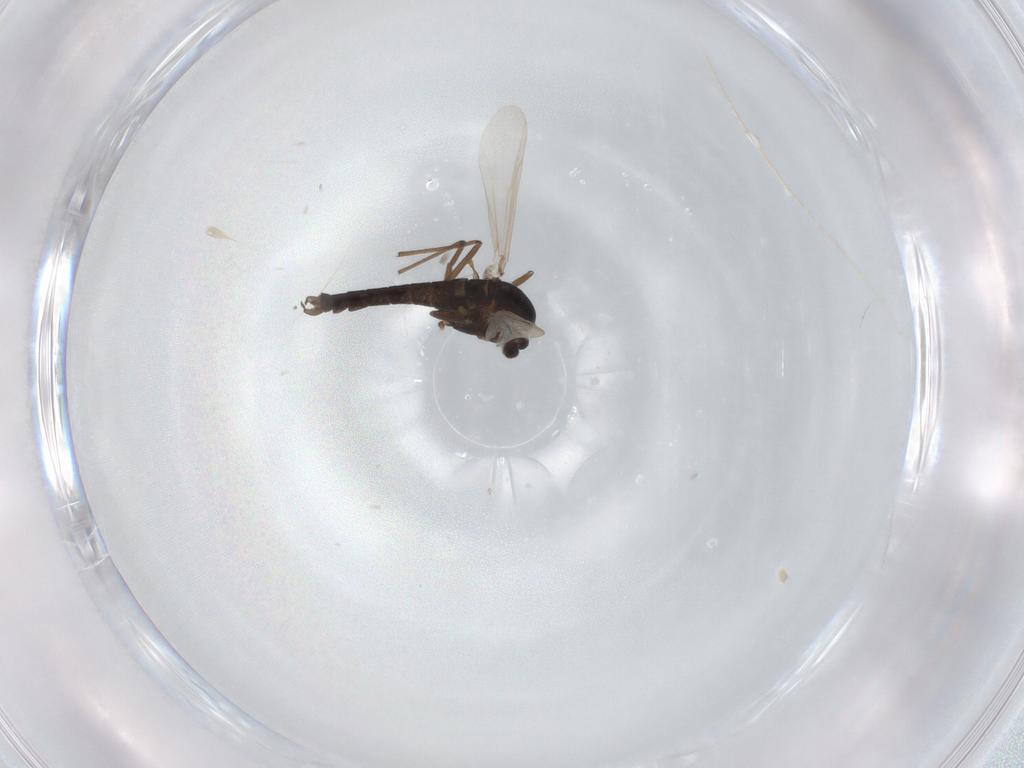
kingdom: Animalia
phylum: Arthropoda
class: Insecta
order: Diptera
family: Chironomidae
